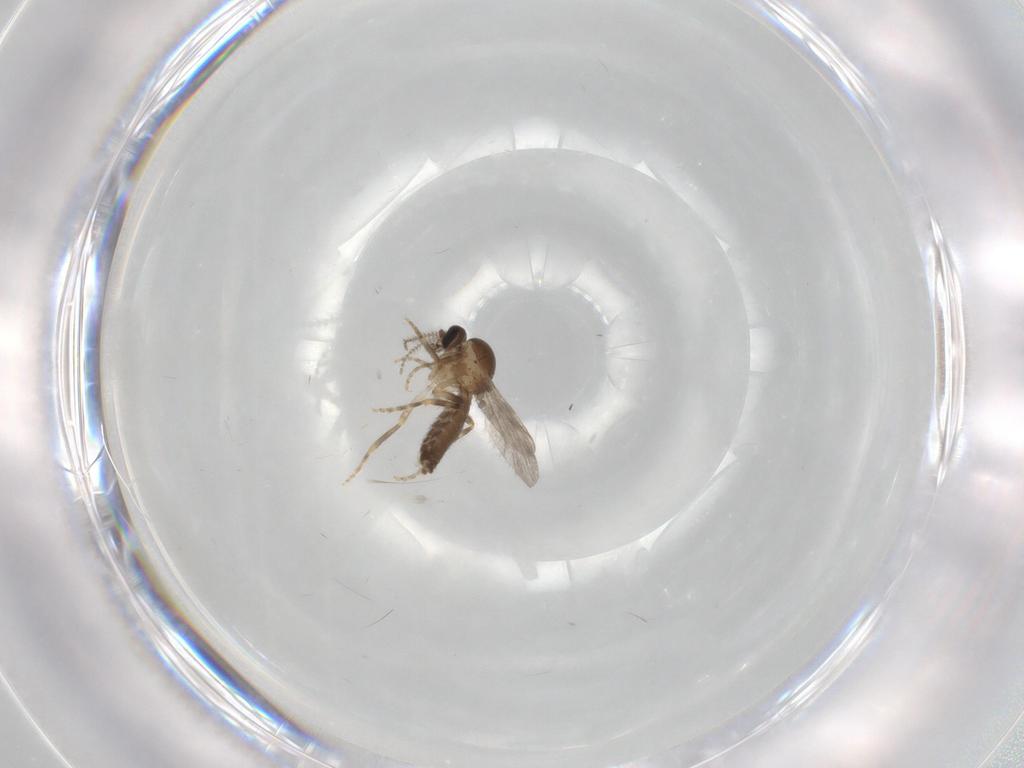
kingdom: Animalia
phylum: Arthropoda
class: Insecta
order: Diptera
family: Ceratopogonidae
